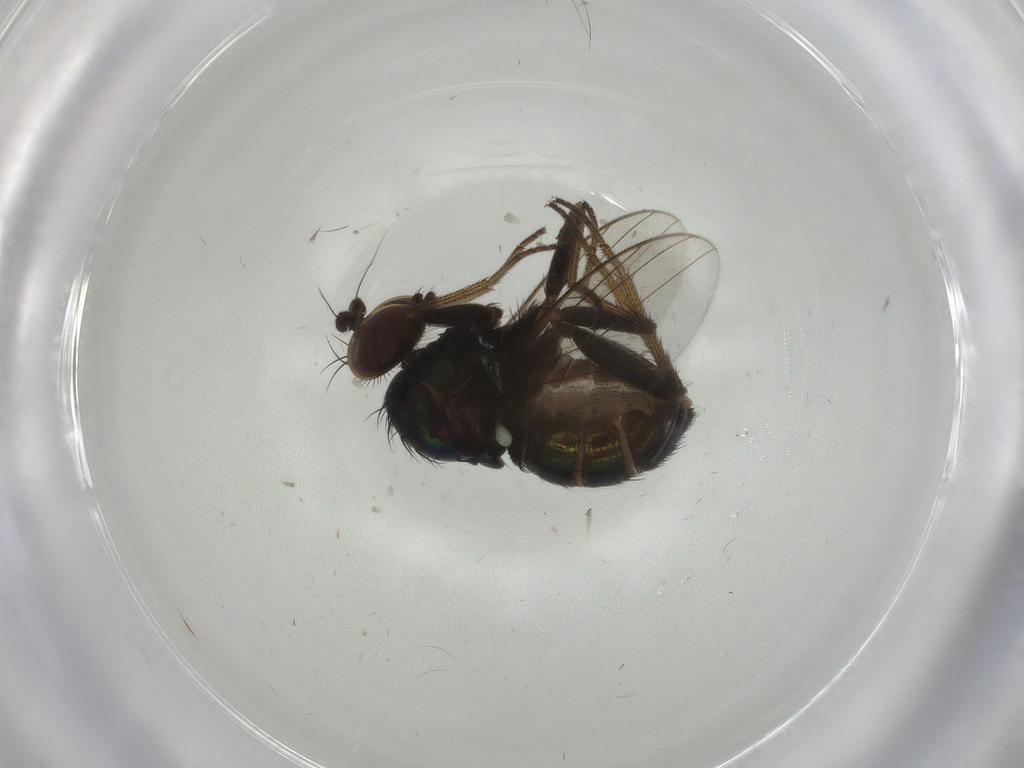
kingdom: Animalia
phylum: Arthropoda
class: Insecta
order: Diptera
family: Dolichopodidae
